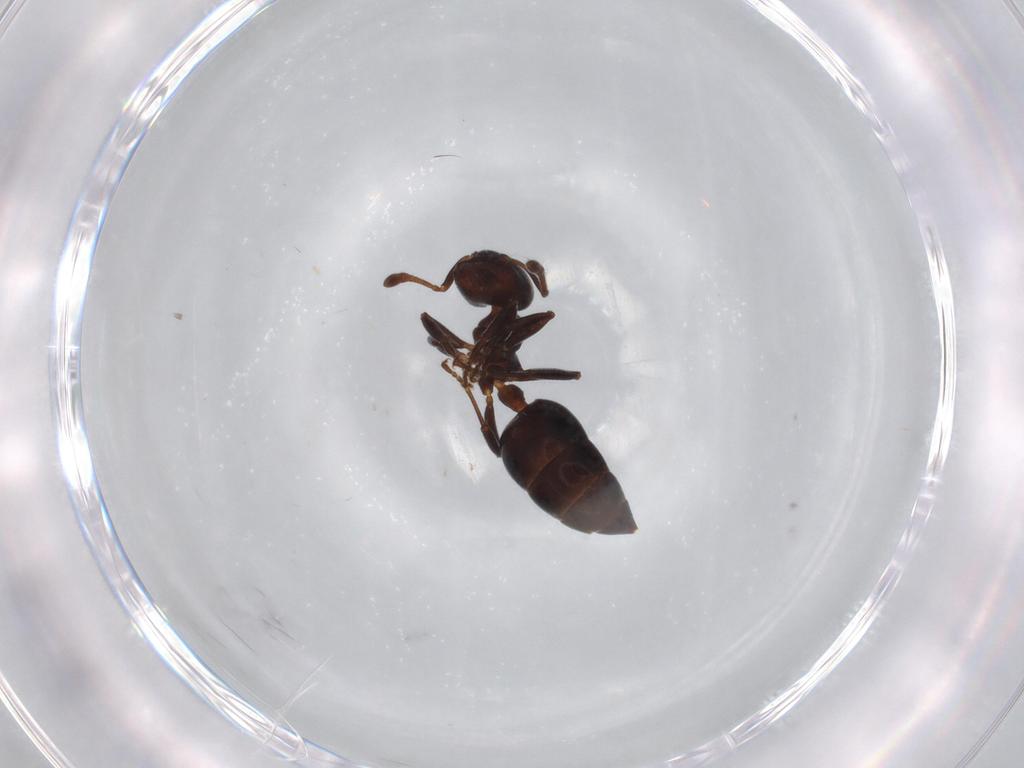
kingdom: Animalia
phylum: Arthropoda
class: Insecta
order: Hymenoptera
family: Formicidae
